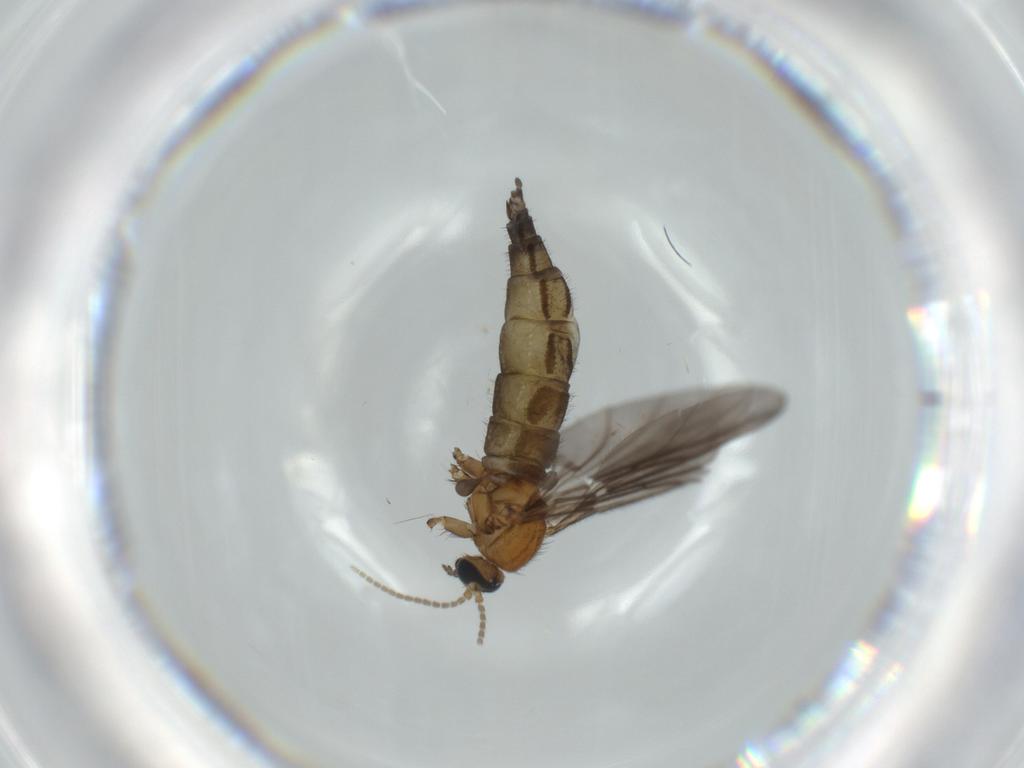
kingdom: Animalia
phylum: Arthropoda
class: Insecta
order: Diptera
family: Sciaridae
